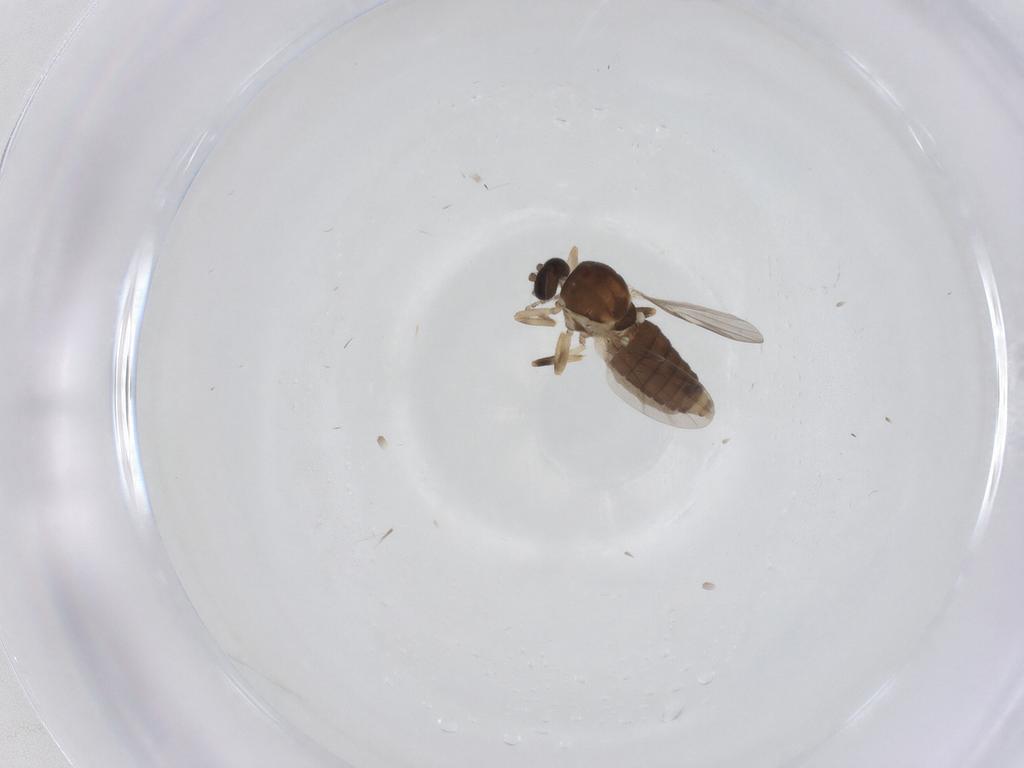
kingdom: Animalia
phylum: Arthropoda
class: Insecta
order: Diptera
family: Ceratopogonidae
